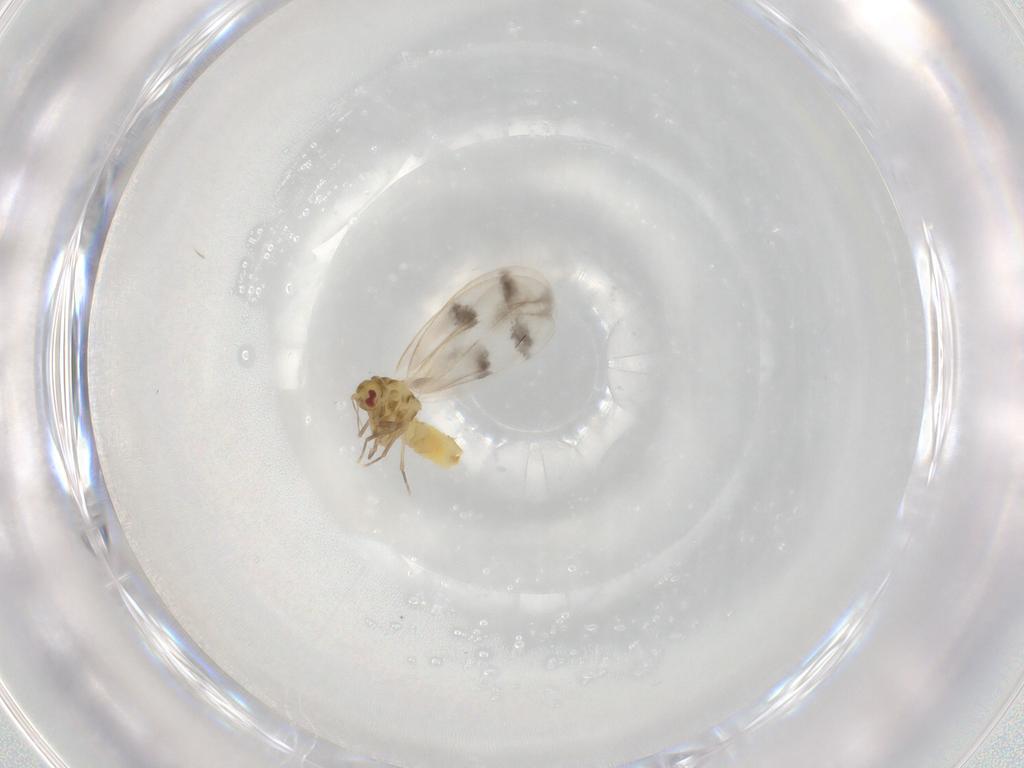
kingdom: Animalia
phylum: Arthropoda
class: Insecta
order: Hemiptera
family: Aleyrodidae
